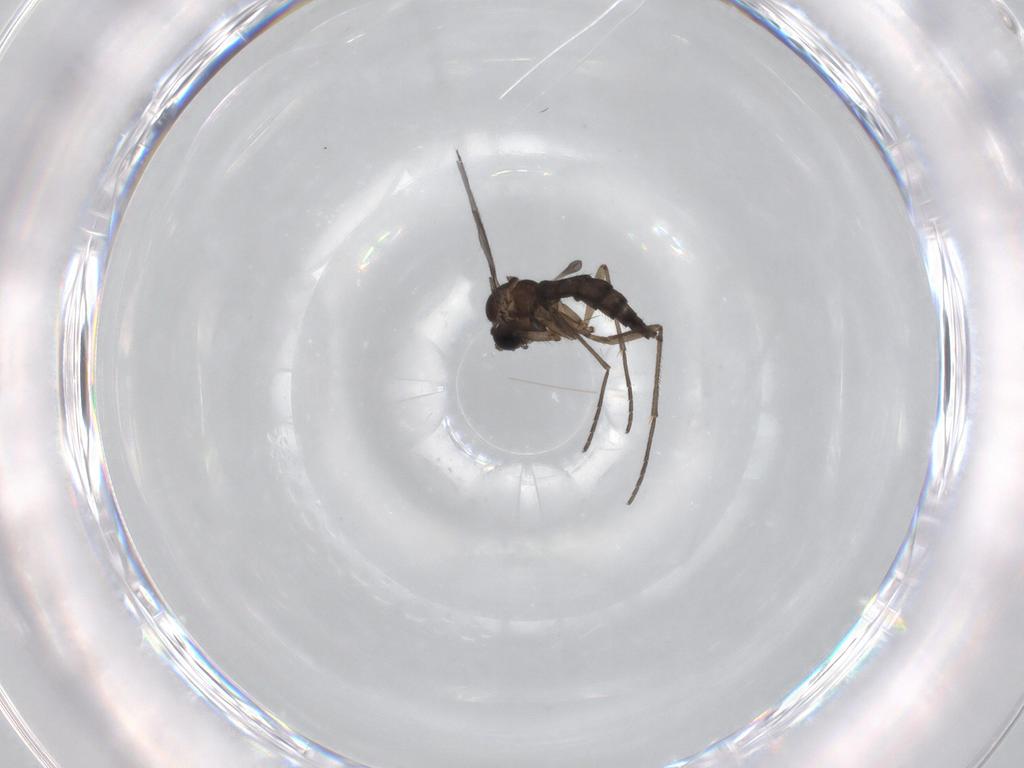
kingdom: Animalia
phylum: Arthropoda
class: Insecta
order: Diptera
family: Sciaridae
